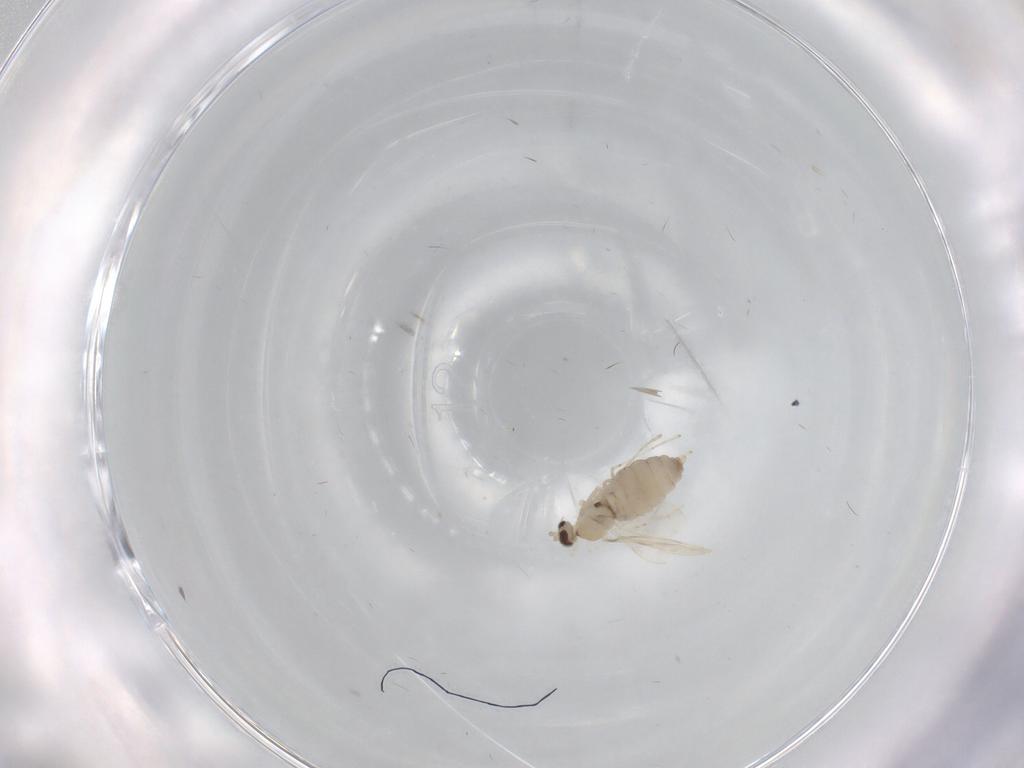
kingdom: Animalia
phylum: Arthropoda
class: Insecta
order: Diptera
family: Cecidomyiidae
